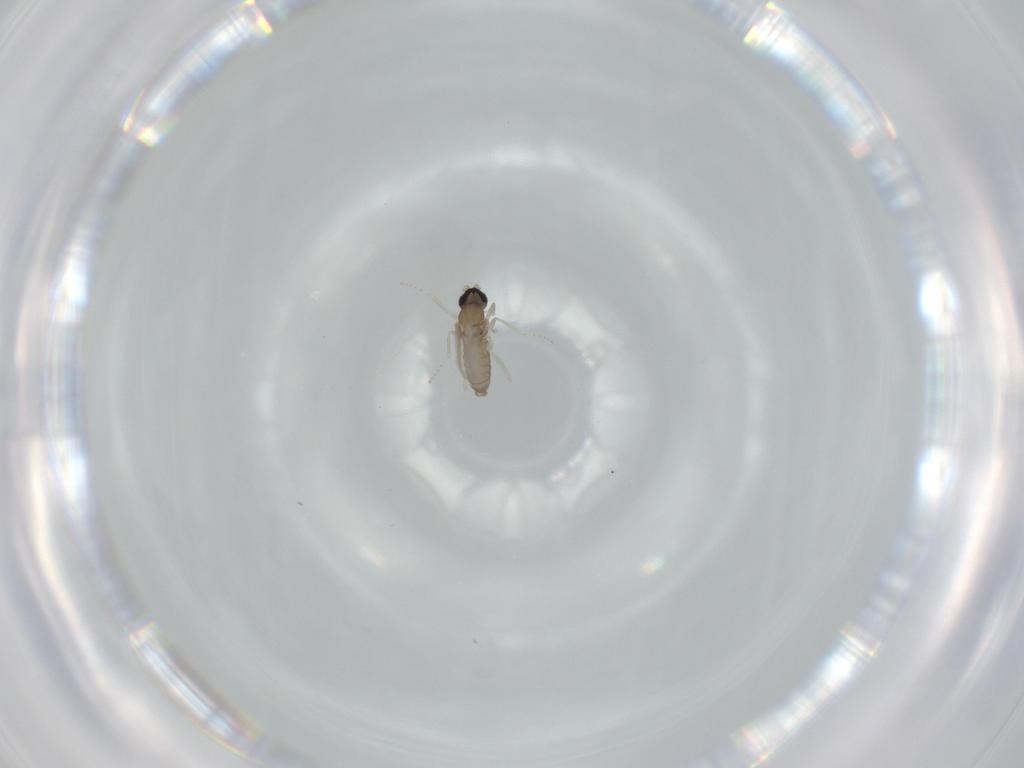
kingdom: Animalia
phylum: Arthropoda
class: Insecta
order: Diptera
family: Cecidomyiidae
